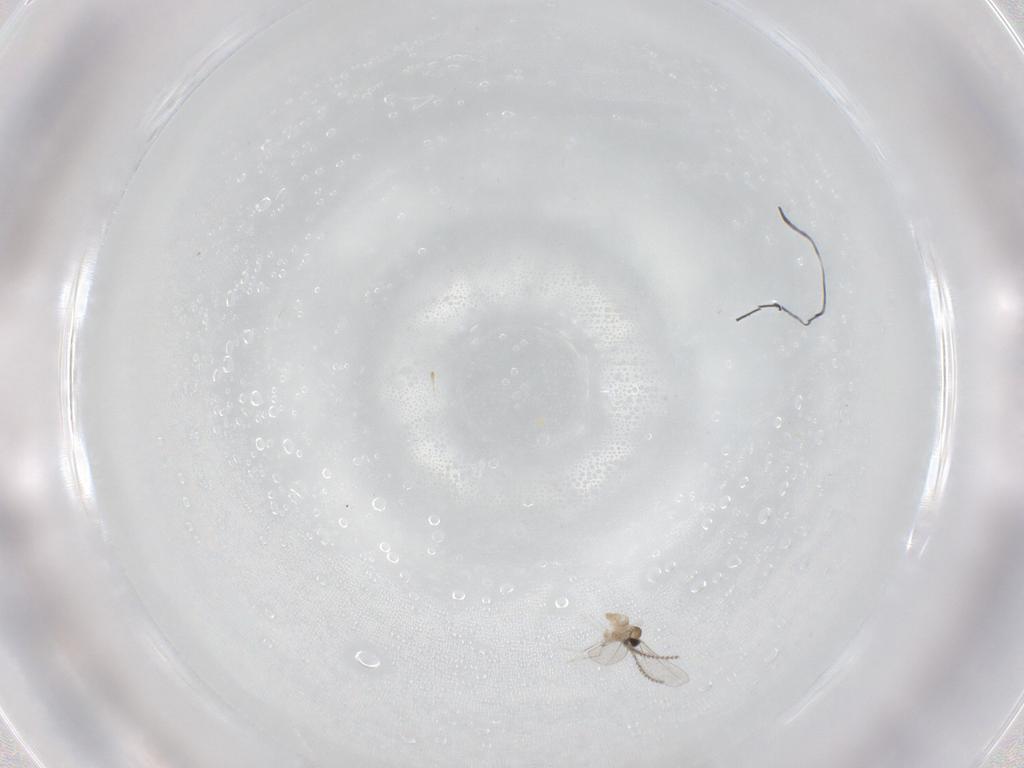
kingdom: Animalia
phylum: Arthropoda
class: Insecta
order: Diptera
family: Cecidomyiidae
